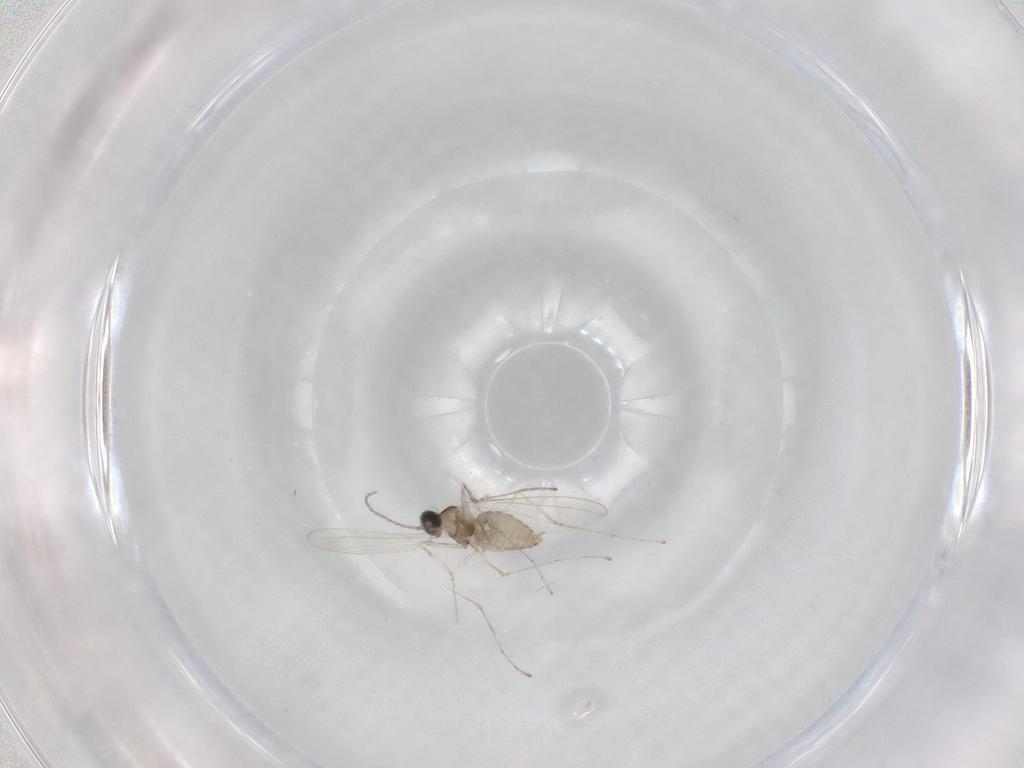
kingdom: Animalia
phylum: Arthropoda
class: Insecta
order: Diptera
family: Cecidomyiidae
